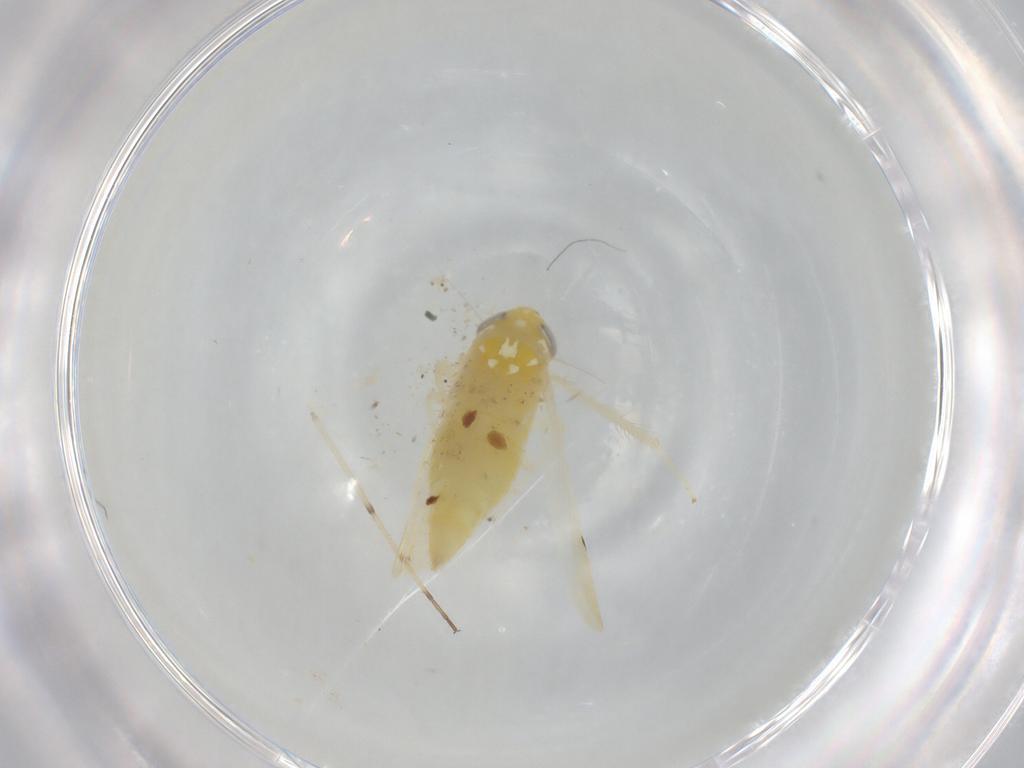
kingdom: Animalia
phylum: Arthropoda
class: Insecta
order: Hemiptera
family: Cicadellidae
